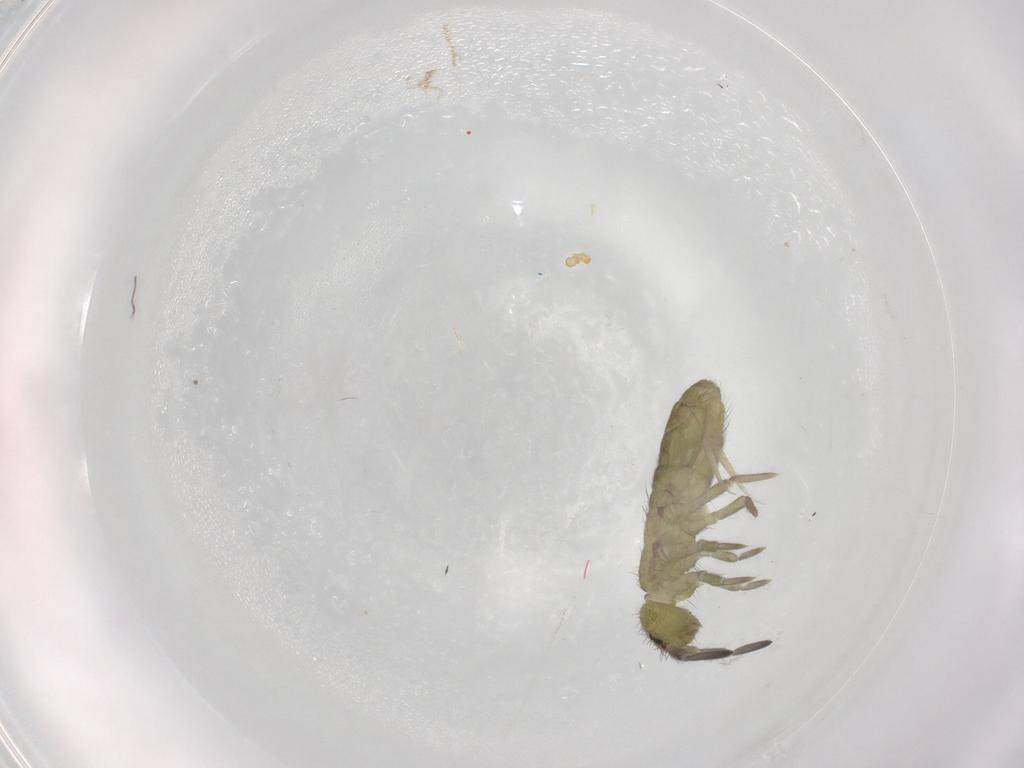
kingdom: Animalia
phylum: Arthropoda
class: Collembola
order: Entomobryomorpha
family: Isotomidae
